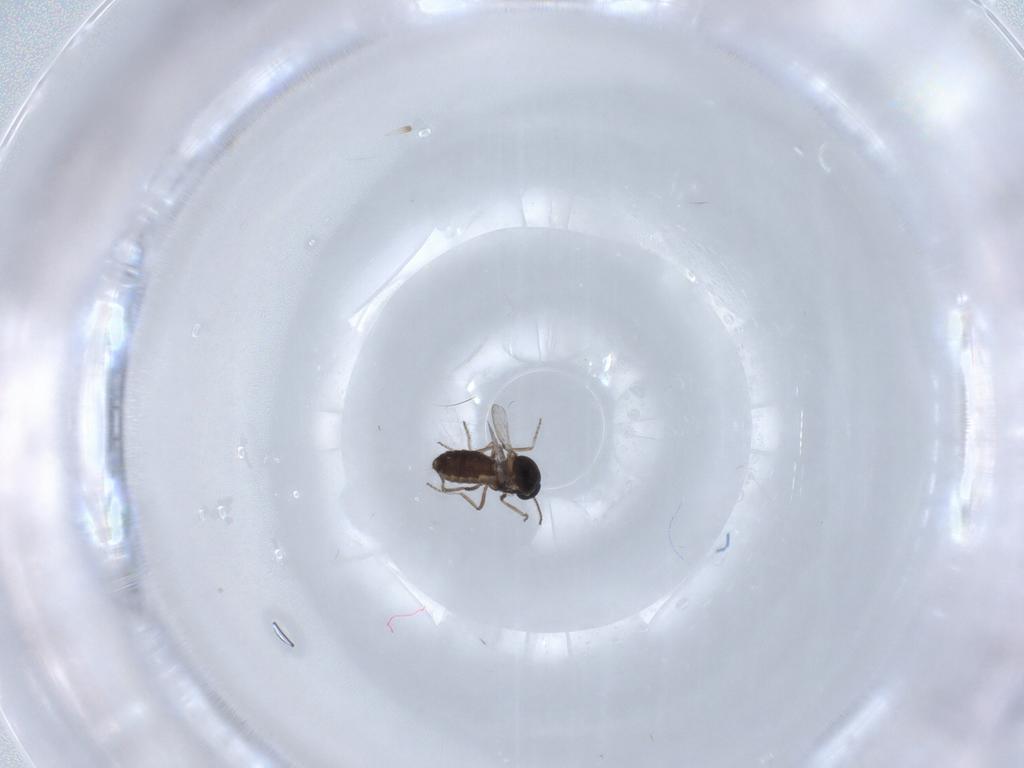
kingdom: Animalia
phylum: Arthropoda
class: Insecta
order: Diptera
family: Ceratopogonidae
